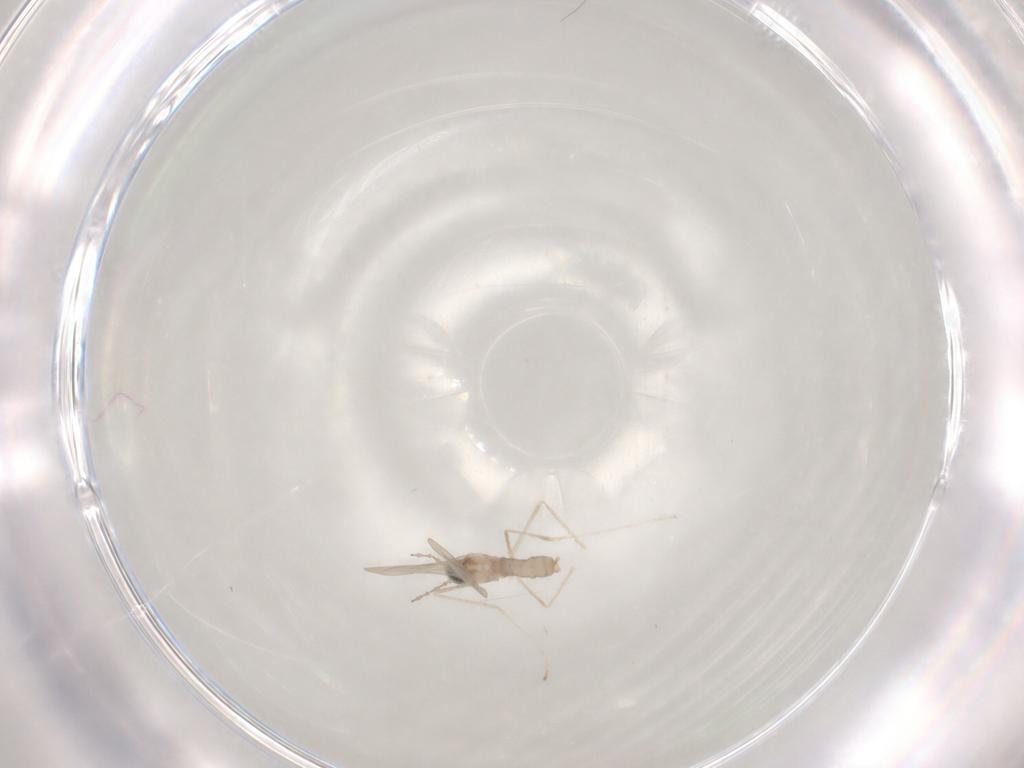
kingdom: Animalia
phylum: Arthropoda
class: Insecta
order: Diptera
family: Cecidomyiidae
